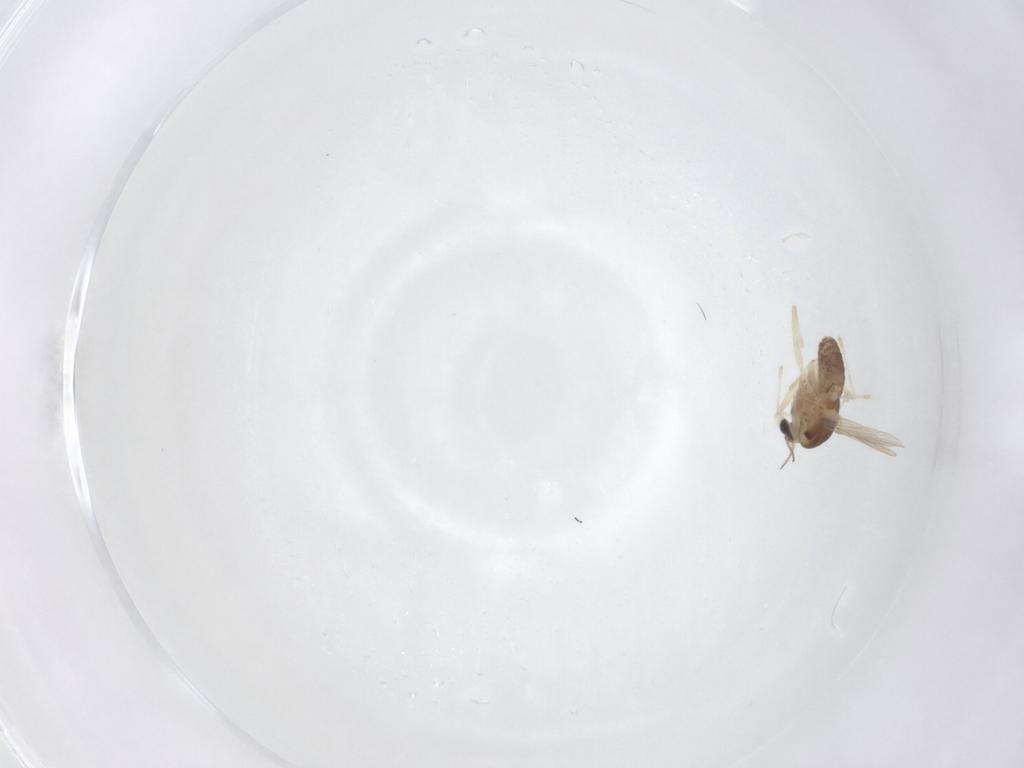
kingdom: Animalia
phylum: Arthropoda
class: Insecta
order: Diptera
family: Chironomidae
